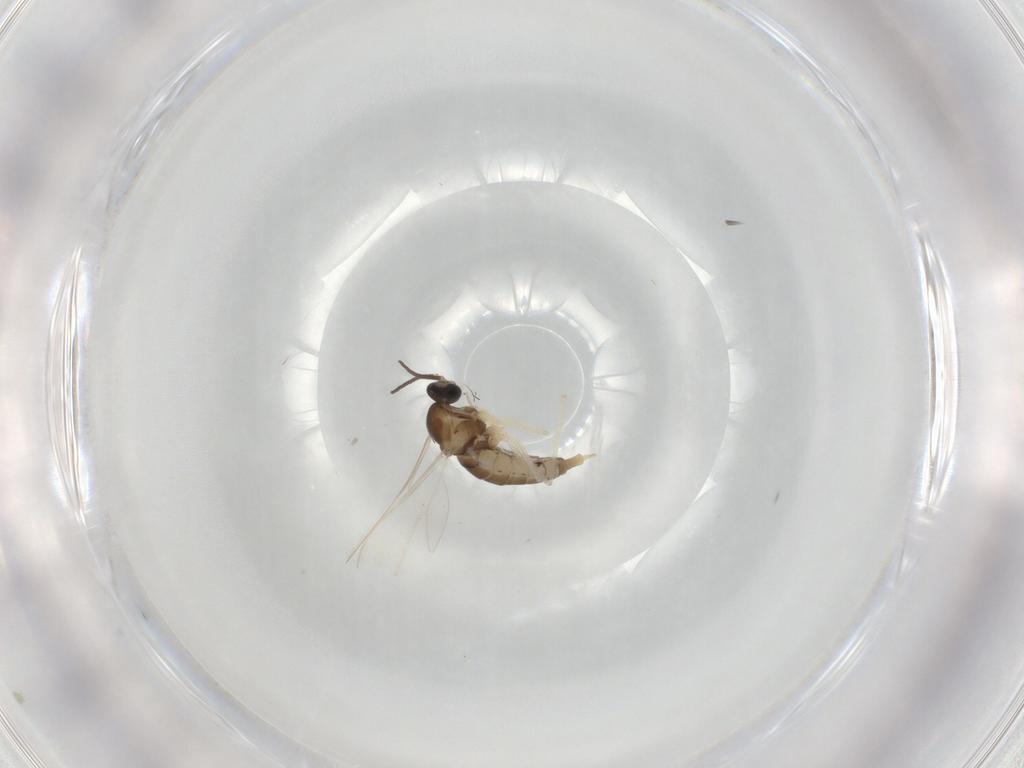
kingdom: Animalia
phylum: Arthropoda
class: Insecta
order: Diptera
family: Cecidomyiidae
